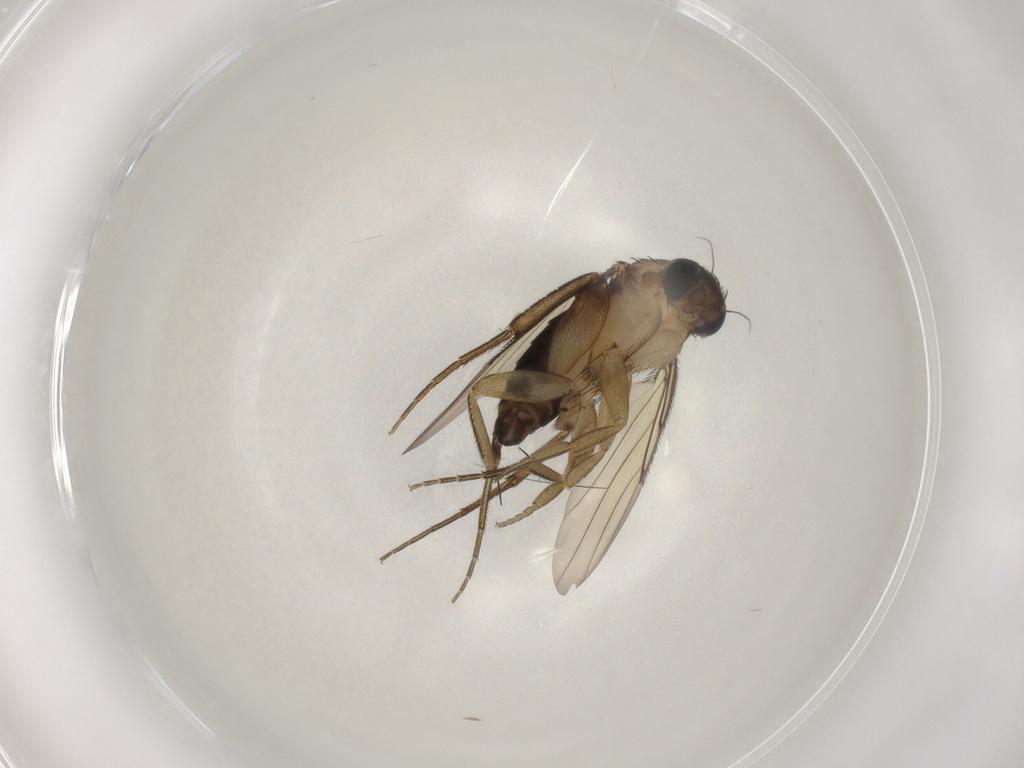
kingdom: Animalia
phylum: Arthropoda
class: Insecta
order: Diptera
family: Phoridae
